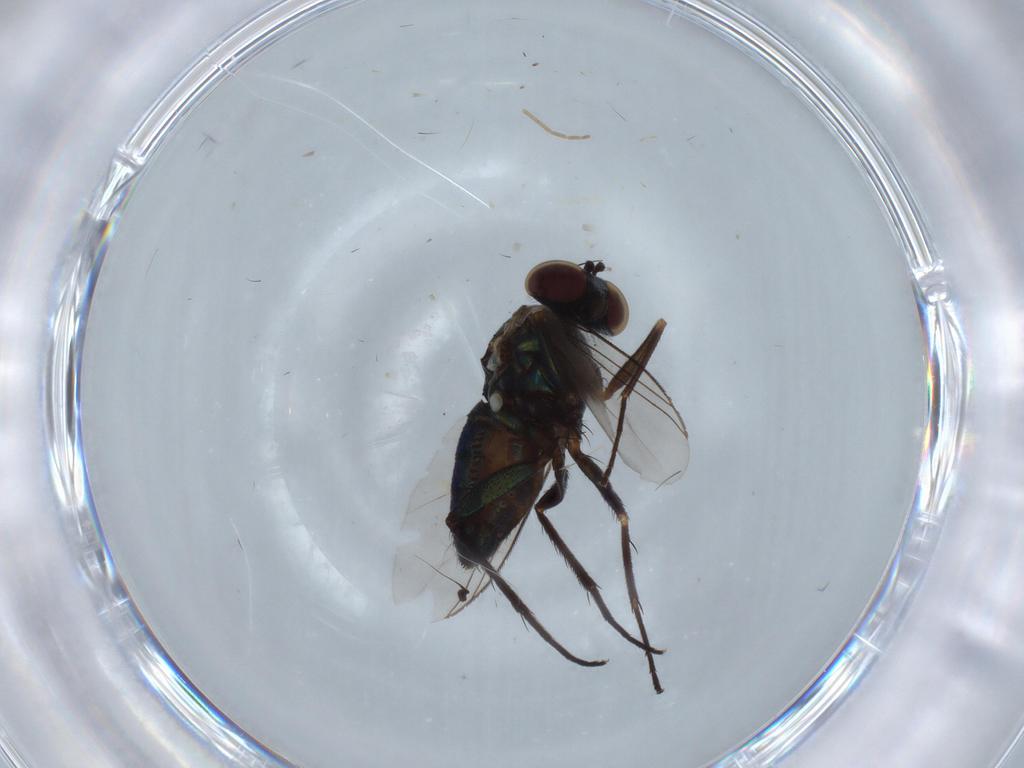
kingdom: Animalia
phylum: Arthropoda
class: Insecta
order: Diptera
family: Dolichopodidae
